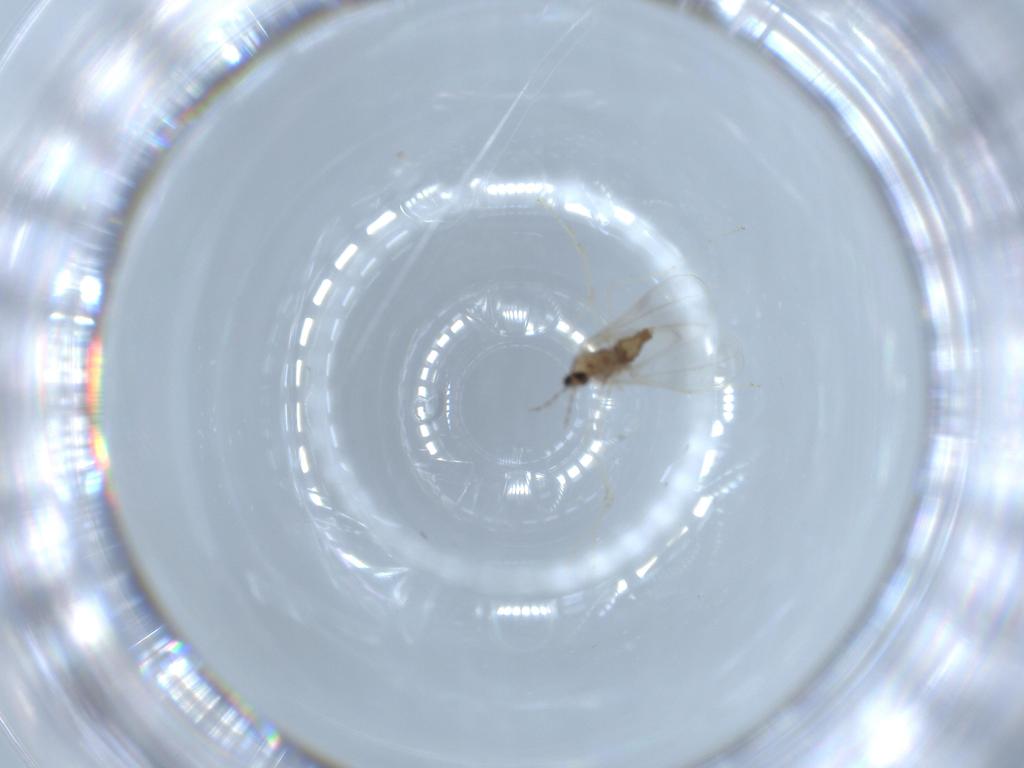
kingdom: Animalia
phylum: Arthropoda
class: Insecta
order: Diptera
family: Cecidomyiidae
